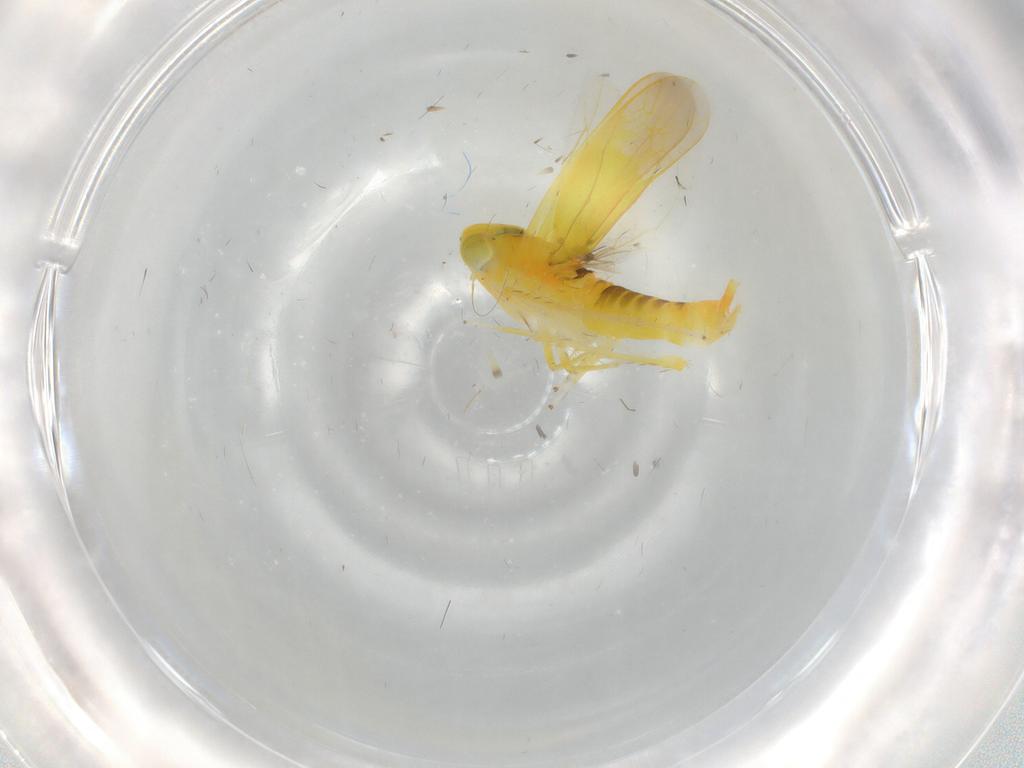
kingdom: Animalia
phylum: Arthropoda
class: Insecta
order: Hemiptera
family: Cicadellidae
